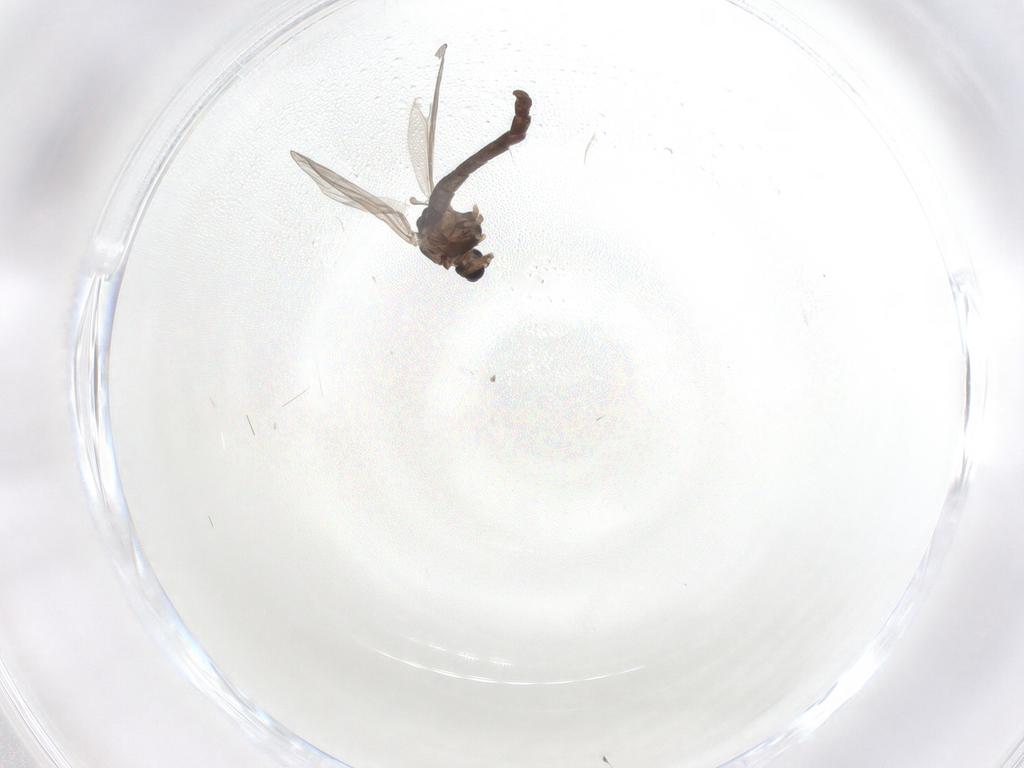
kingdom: Animalia
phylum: Arthropoda
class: Insecta
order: Diptera
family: Chironomidae
